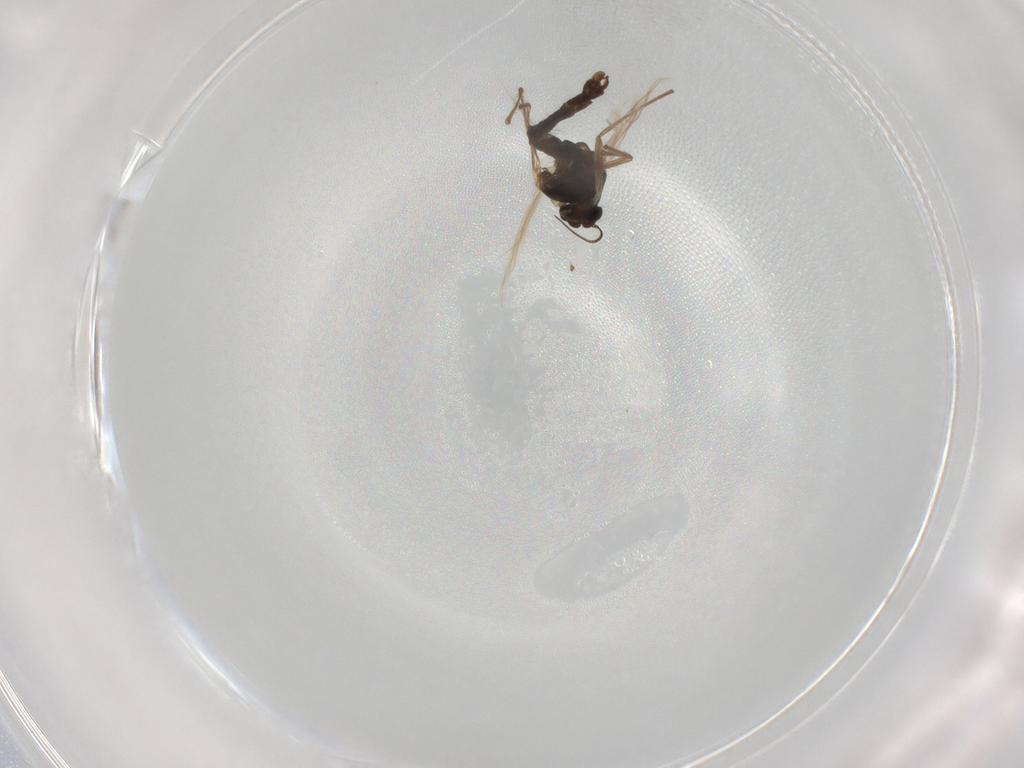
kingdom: Animalia
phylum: Arthropoda
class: Insecta
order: Diptera
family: Chironomidae
